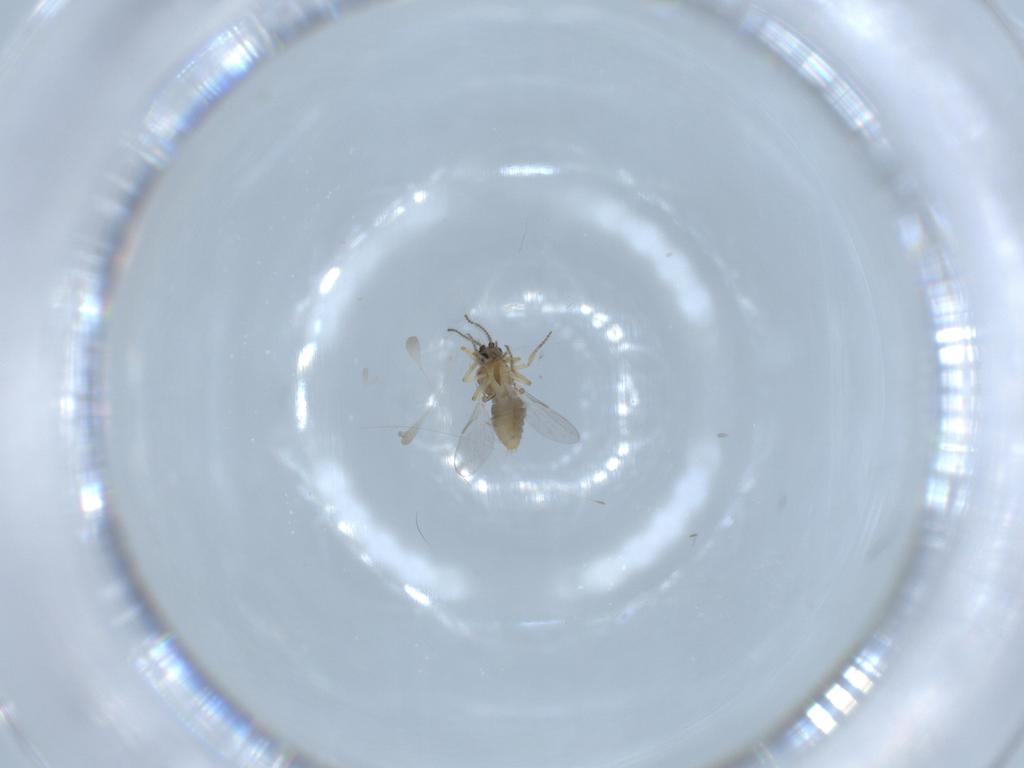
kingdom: Animalia
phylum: Arthropoda
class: Insecta
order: Diptera
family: Ceratopogonidae
